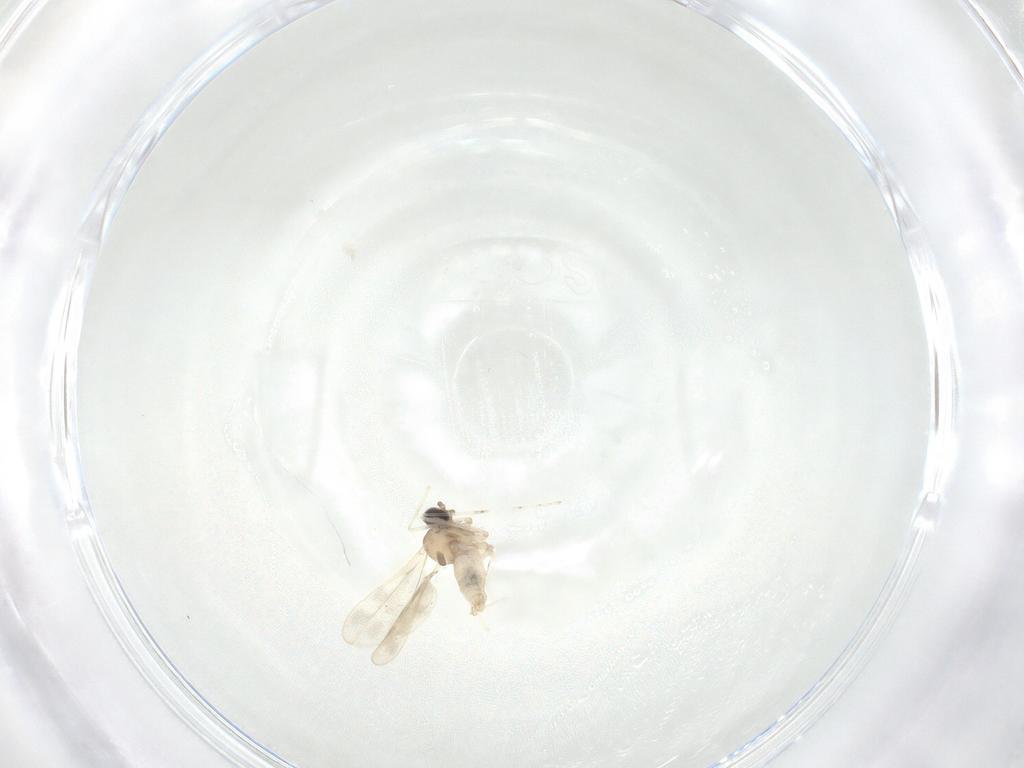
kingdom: Animalia
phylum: Arthropoda
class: Insecta
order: Diptera
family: Cecidomyiidae
